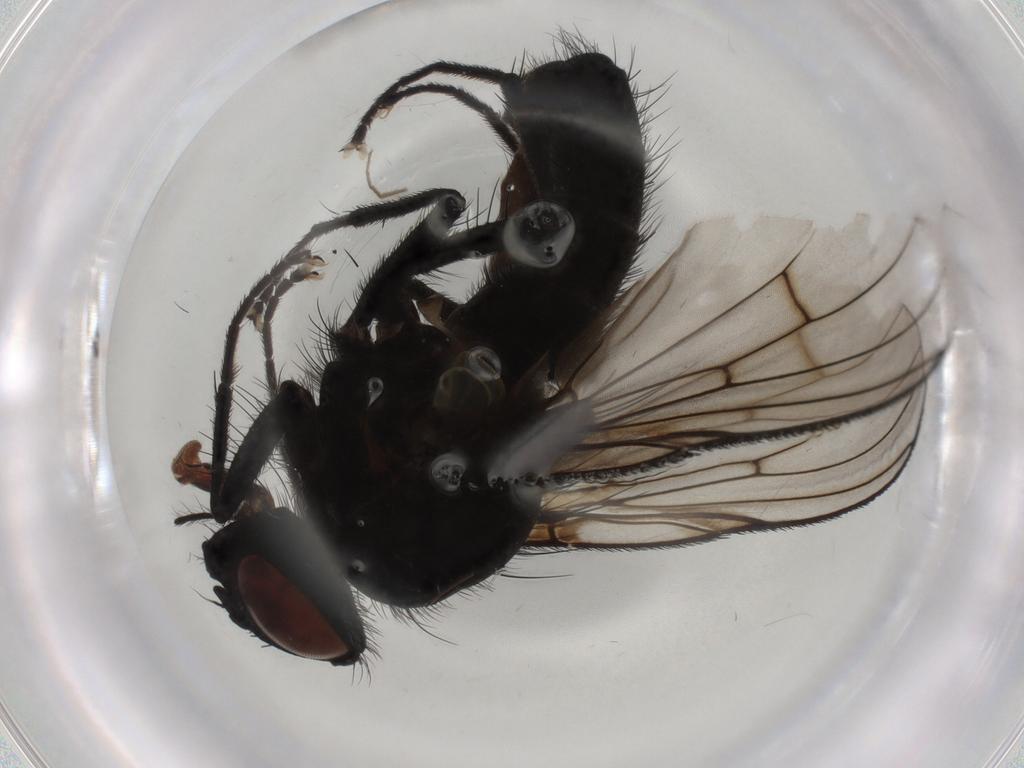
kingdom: Animalia
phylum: Arthropoda
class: Insecta
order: Diptera
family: Muscidae
